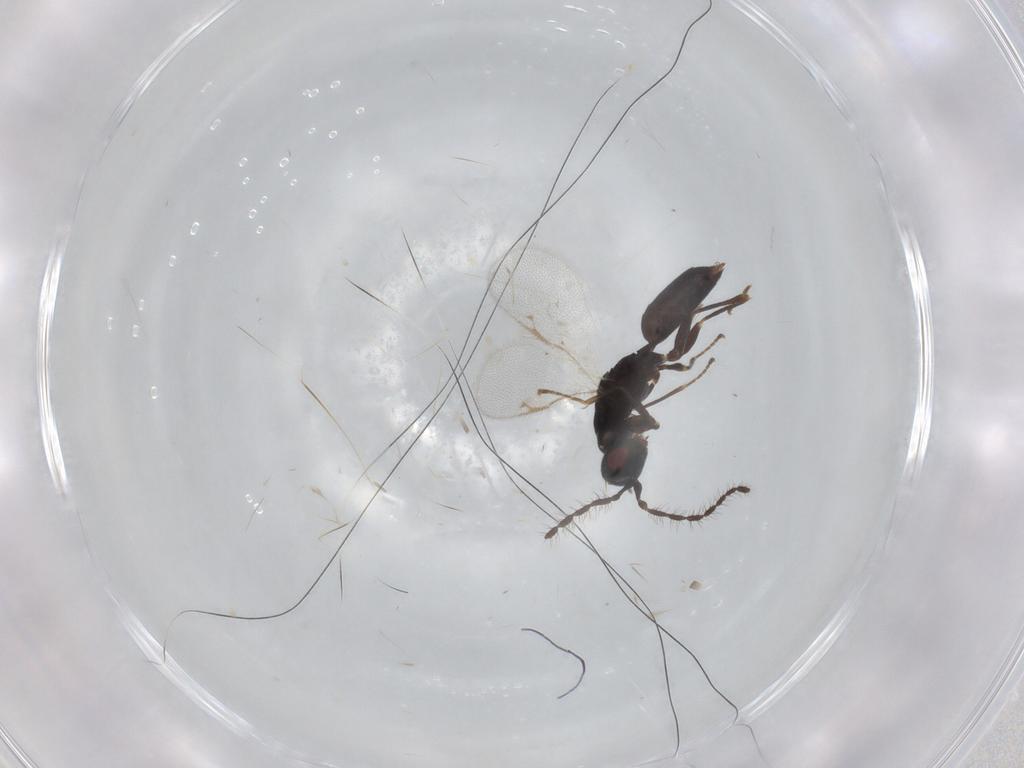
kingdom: Animalia
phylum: Arthropoda
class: Insecta
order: Hymenoptera
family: Eurytomidae
